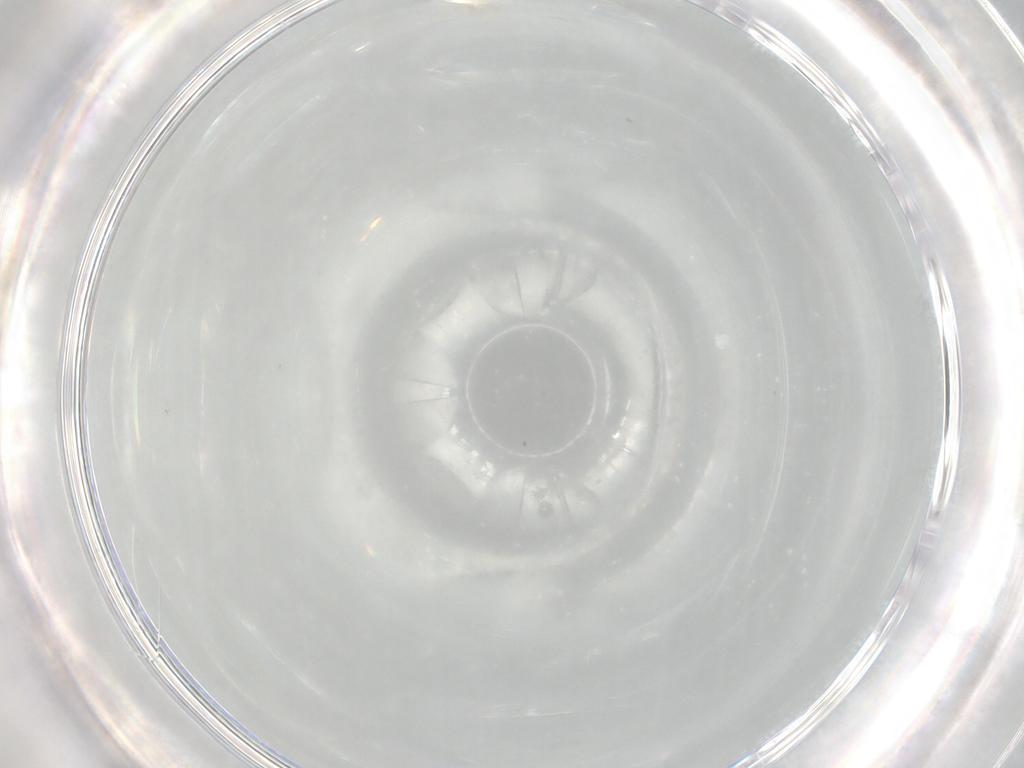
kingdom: Animalia
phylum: Arthropoda
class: Insecta
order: Diptera
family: Chironomidae
